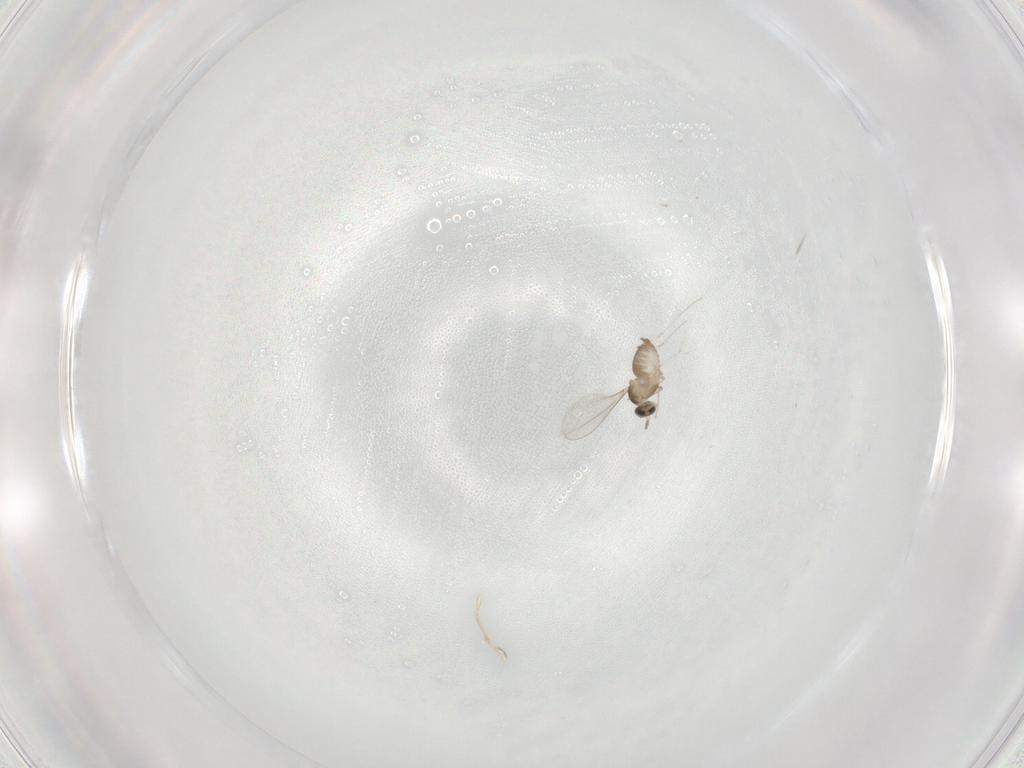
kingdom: Animalia
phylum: Arthropoda
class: Insecta
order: Diptera
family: Cecidomyiidae
